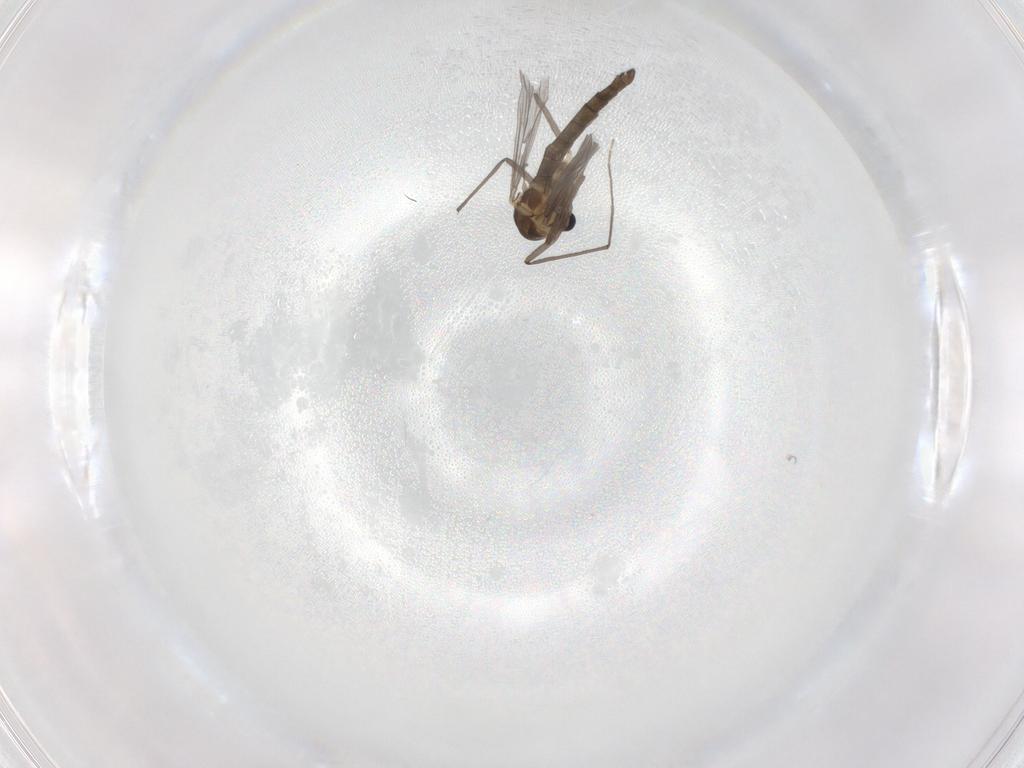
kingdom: Animalia
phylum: Arthropoda
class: Insecta
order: Diptera
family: Chironomidae
